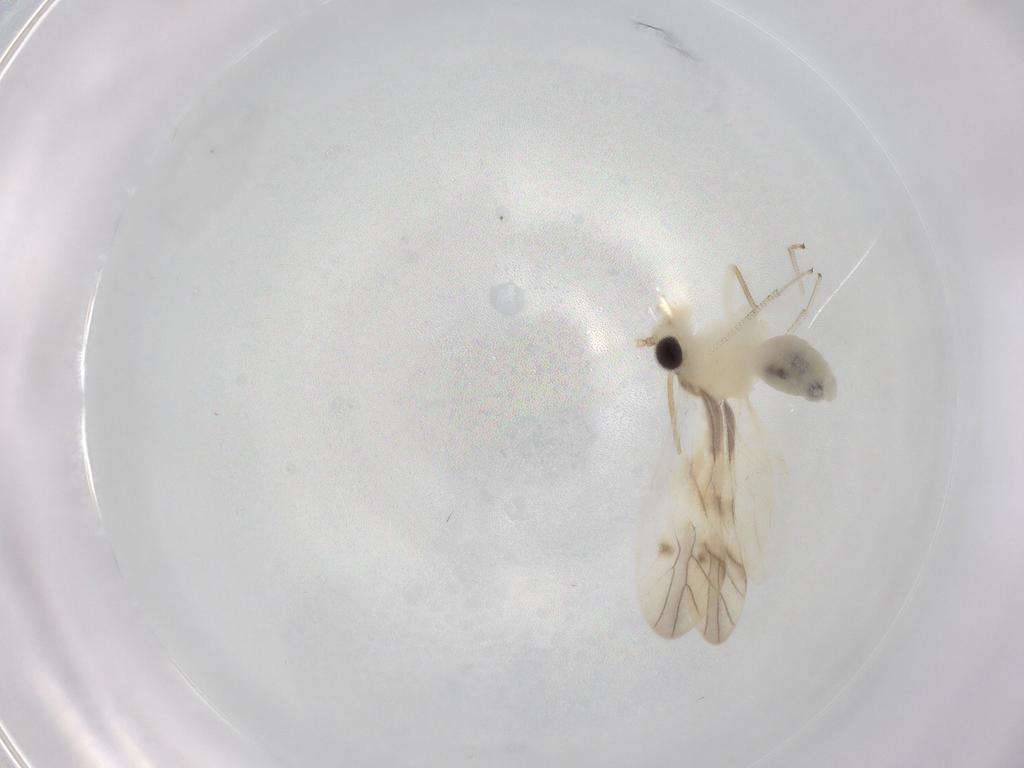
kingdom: Animalia
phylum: Arthropoda
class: Insecta
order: Psocodea
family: Caeciliusidae
